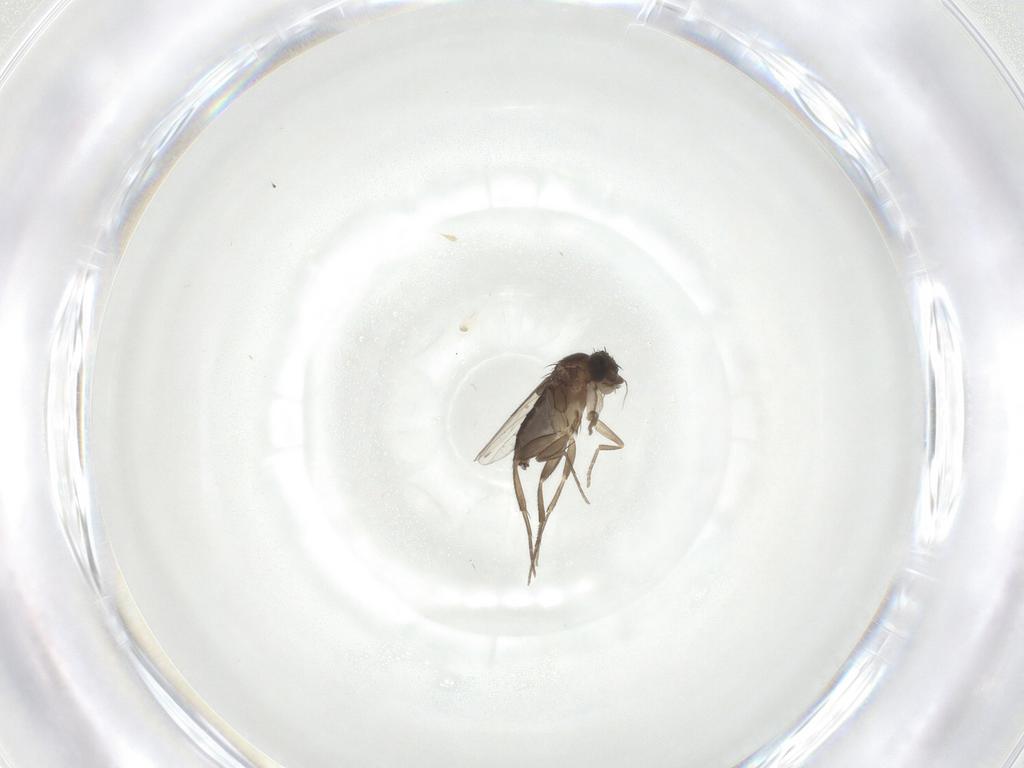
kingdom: Animalia
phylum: Arthropoda
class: Insecta
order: Diptera
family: Phoridae
